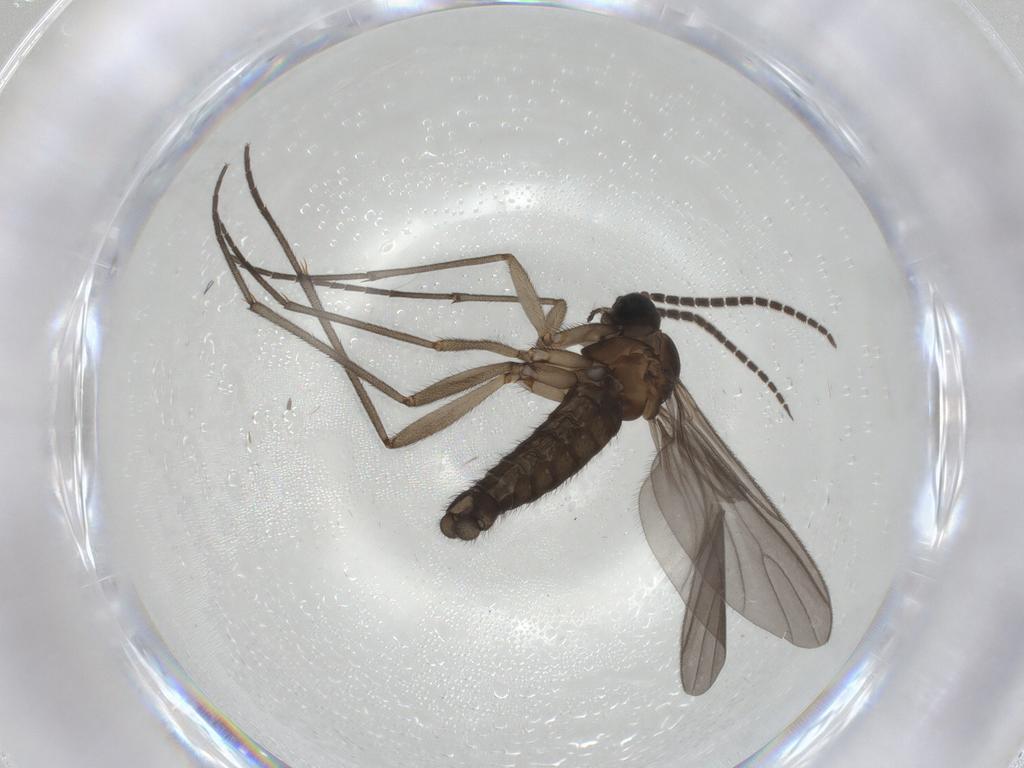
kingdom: Animalia
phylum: Arthropoda
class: Insecta
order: Diptera
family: Sciaridae
